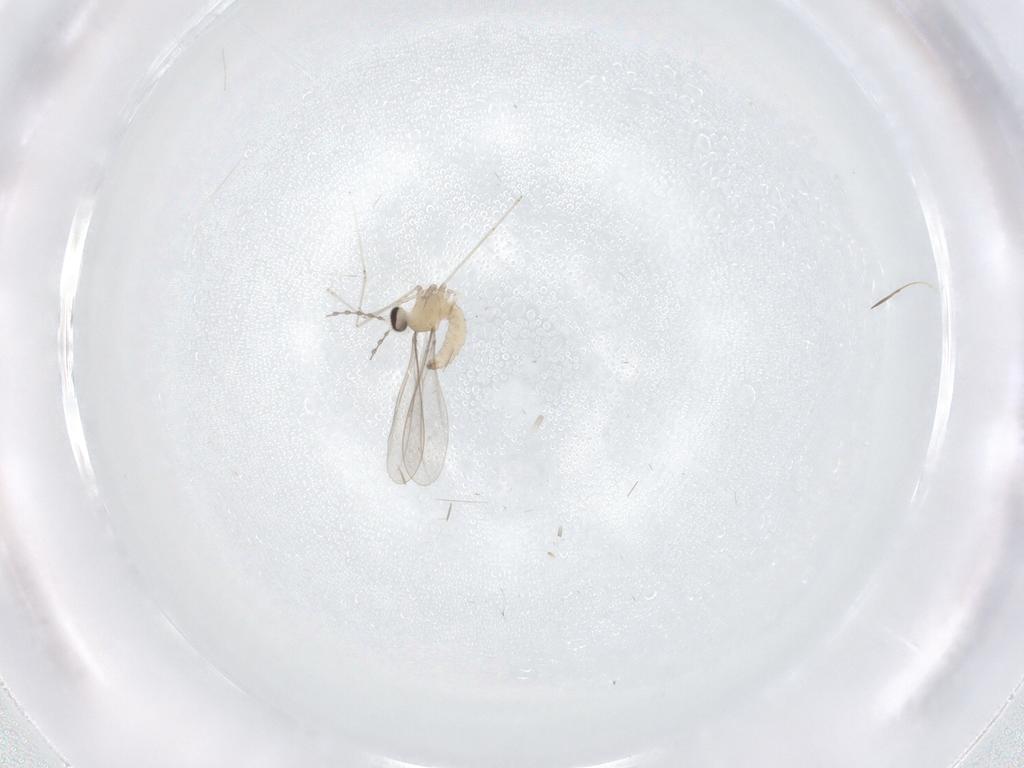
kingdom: Animalia
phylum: Arthropoda
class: Insecta
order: Diptera
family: Cecidomyiidae
